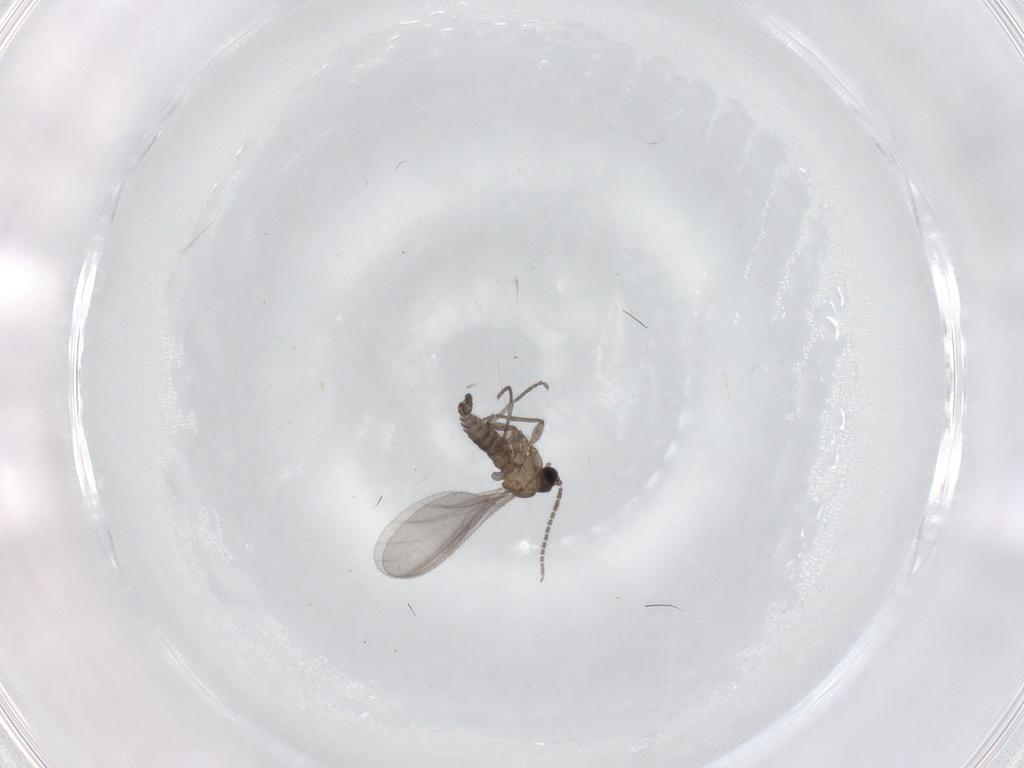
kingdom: Animalia
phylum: Arthropoda
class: Insecta
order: Diptera
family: Sciaridae
